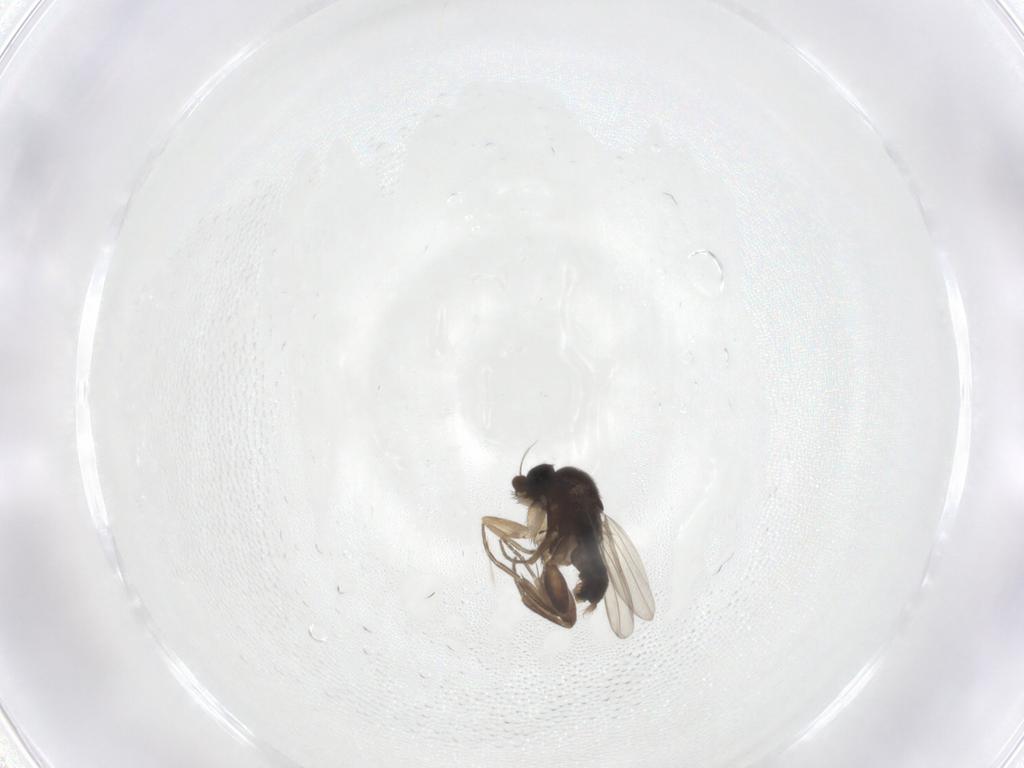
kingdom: Animalia
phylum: Arthropoda
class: Insecta
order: Diptera
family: Phoridae
